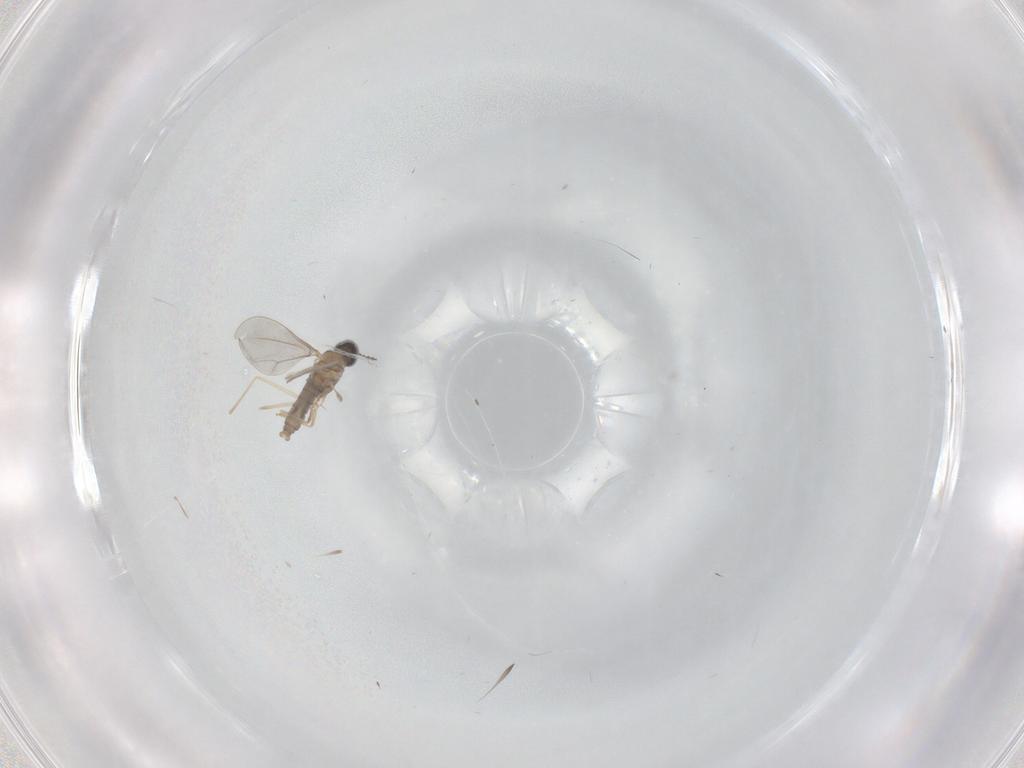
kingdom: Animalia
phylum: Arthropoda
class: Insecta
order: Diptera
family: Cecidomyiidae
